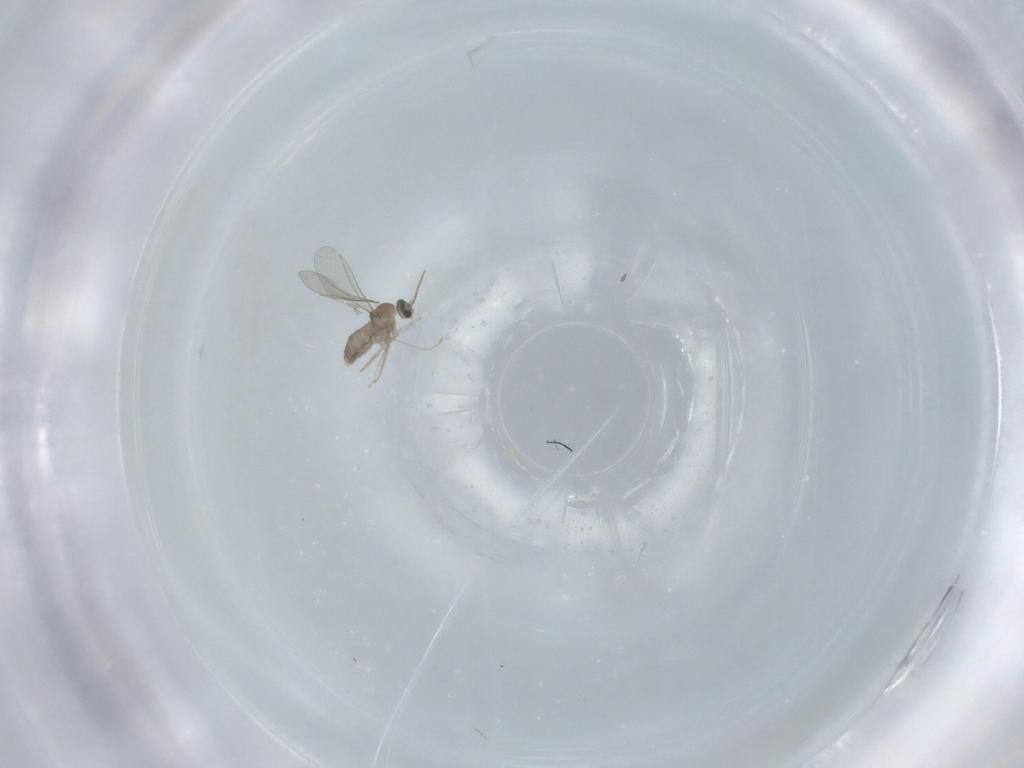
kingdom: Animalia
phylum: Arthropoda
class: Insecta
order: Diptera
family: Cecidomyiidae
